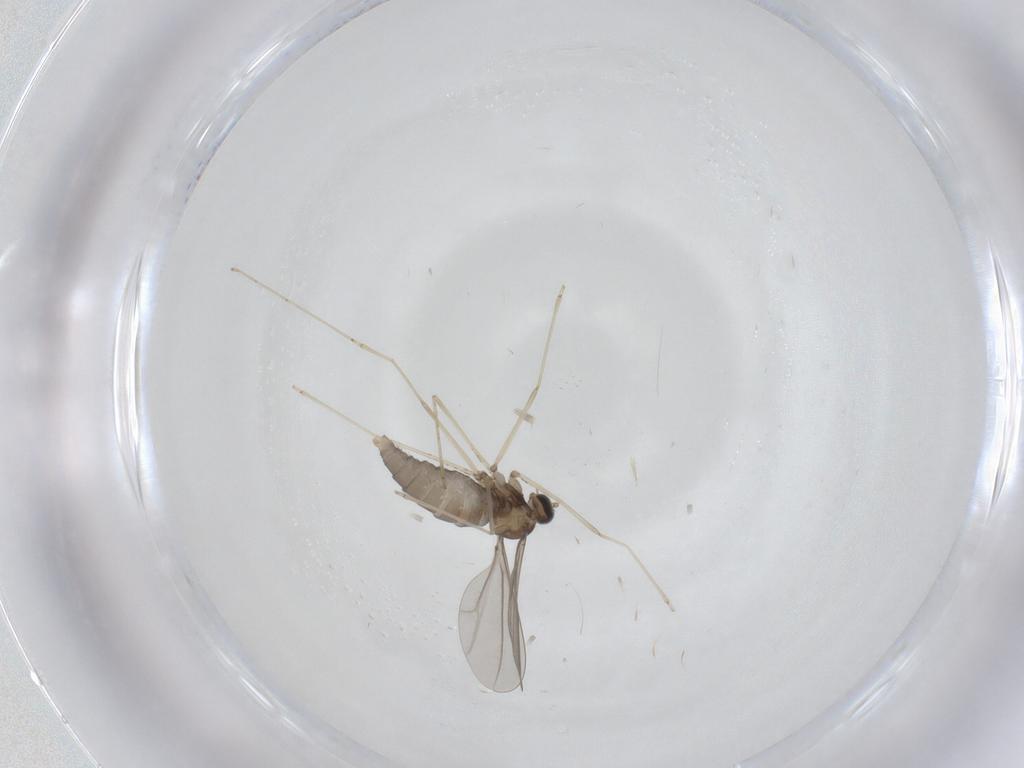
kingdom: Animalia
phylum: Arthropoda
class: Insecta
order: Diptera
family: Cecidomyiidae
